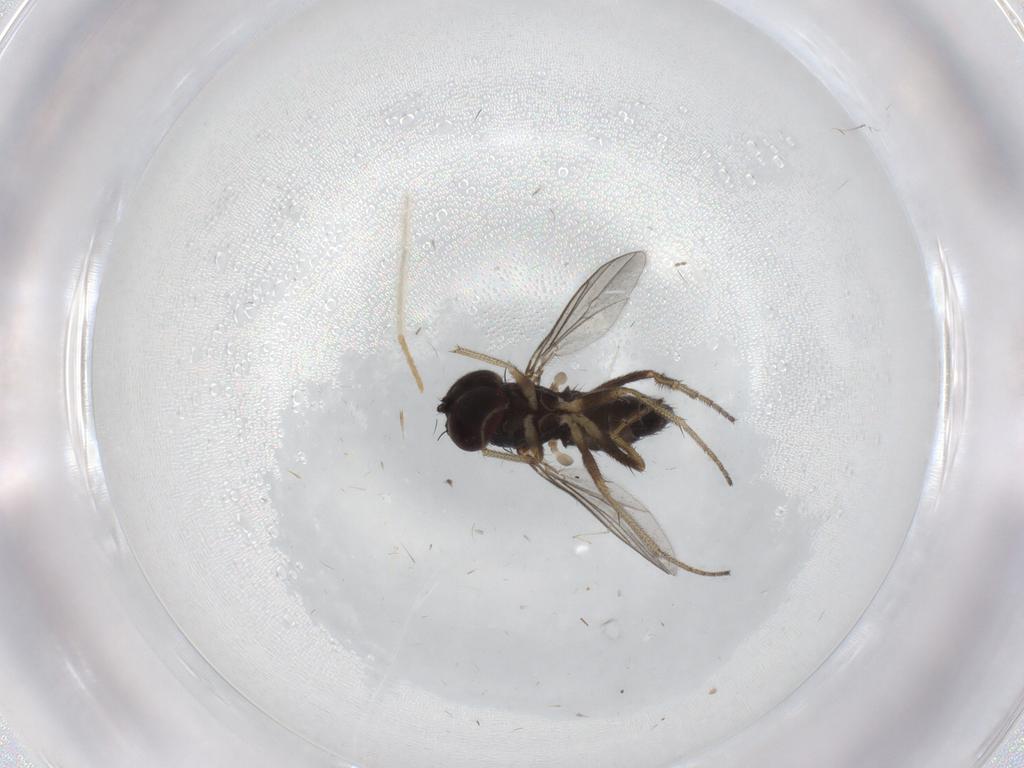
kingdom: Animalia
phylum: Arthropoda
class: Insecta
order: Diptera
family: Chironomidae
